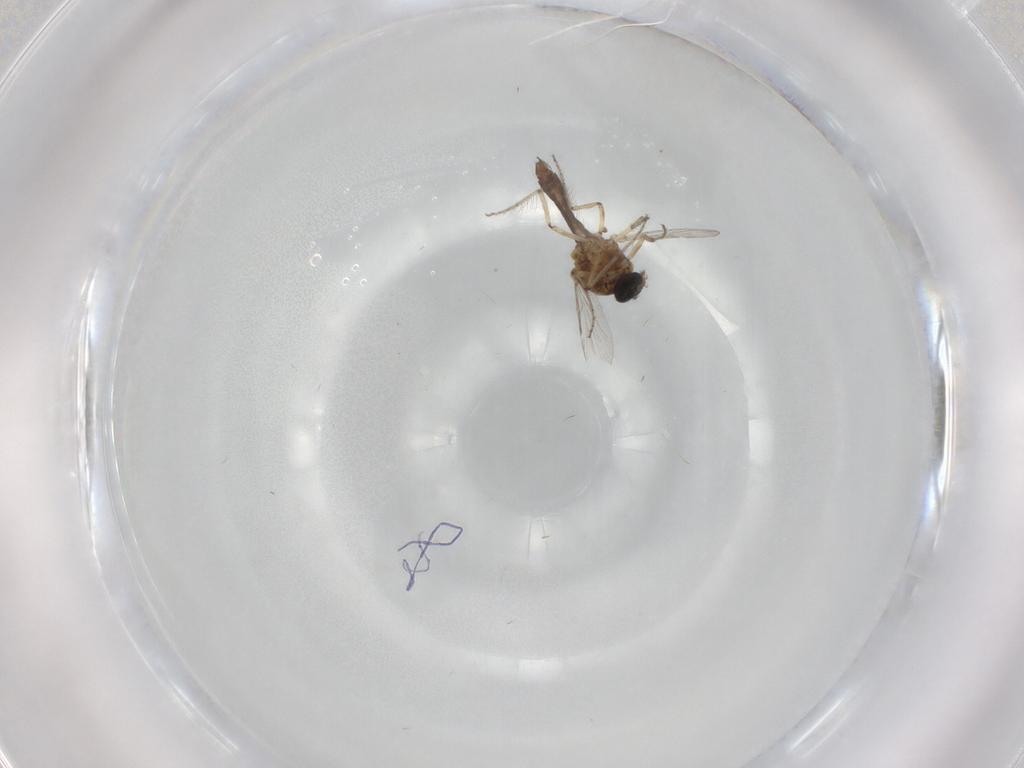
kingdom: Animalia
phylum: Arthropoda
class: Insecta
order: Diptera
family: Ceratopogonidae
